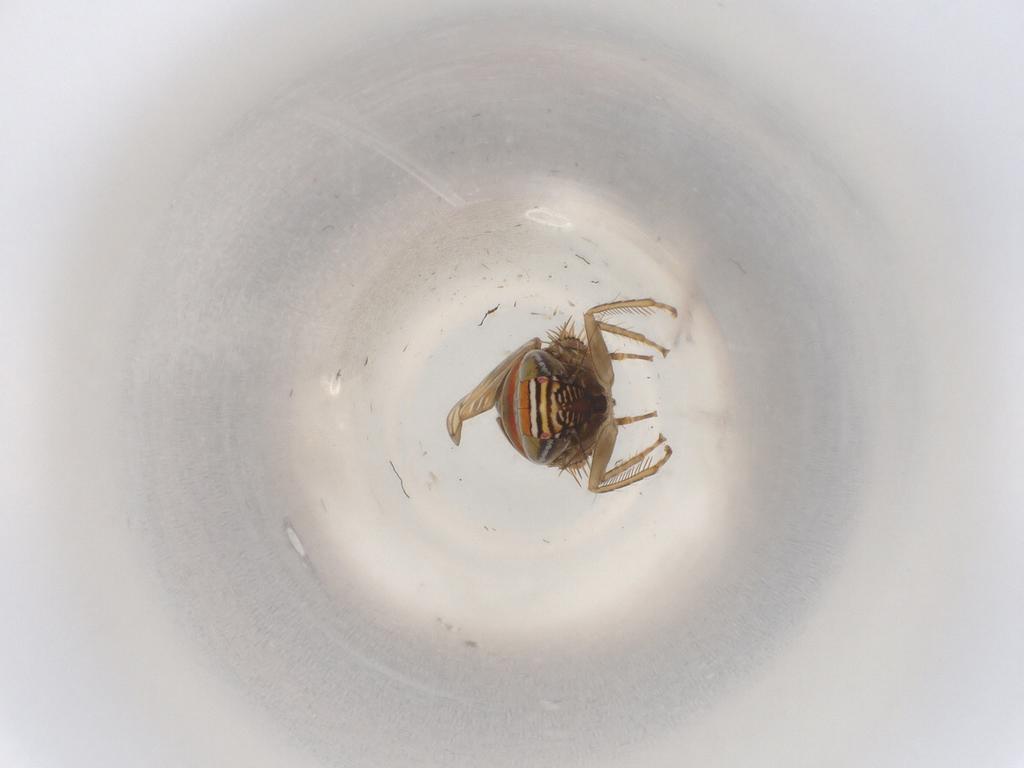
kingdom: Animalia
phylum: Arthropoda
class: Insecta
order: Hemiptera
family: Cicadellidae
